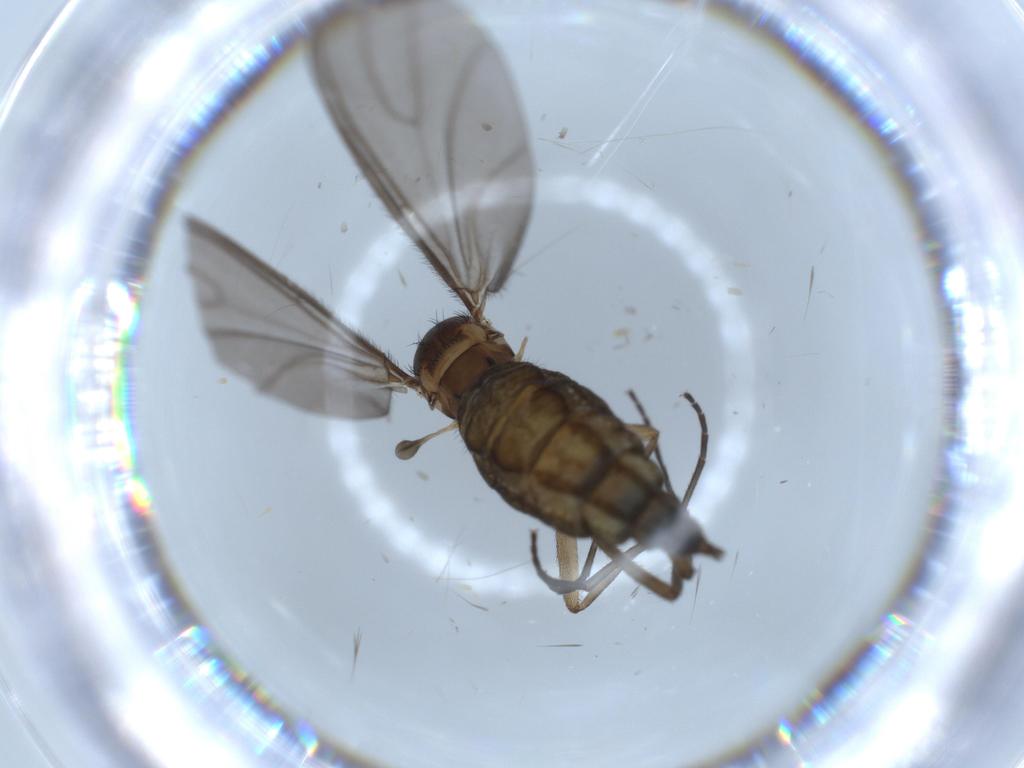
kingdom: Animalia
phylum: Arthropoda
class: Insecta
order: Diptera
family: Sciaridae
